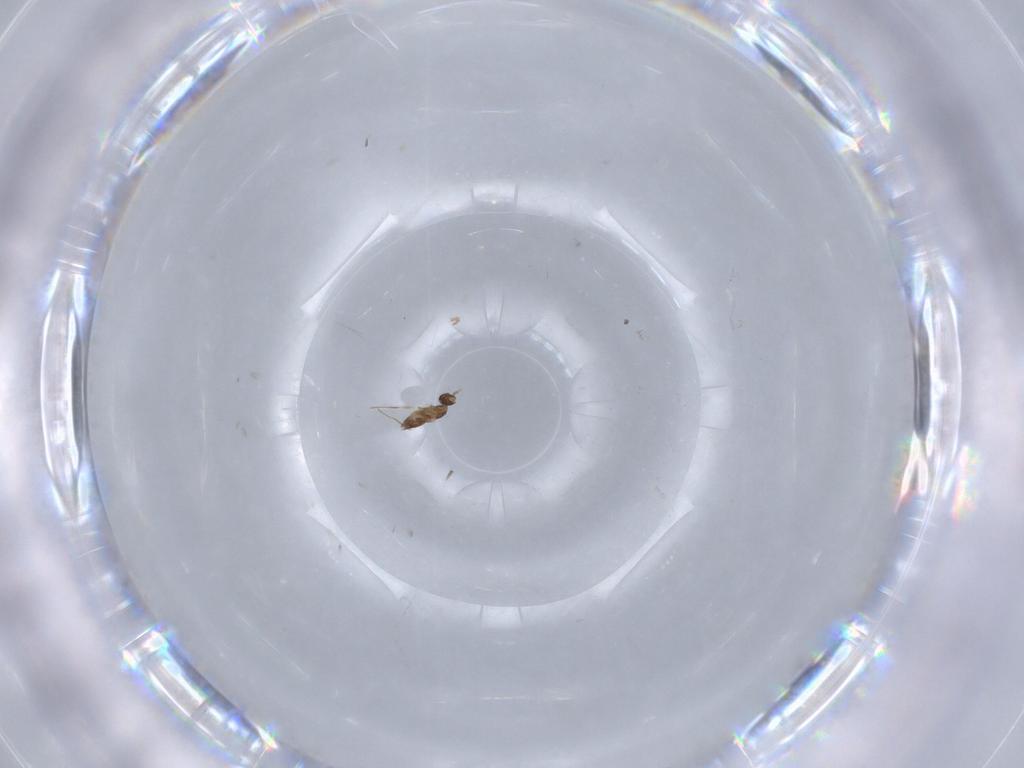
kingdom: Animalia
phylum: Arthropoda
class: Insecta
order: Hymenoptera
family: Mymaridae
